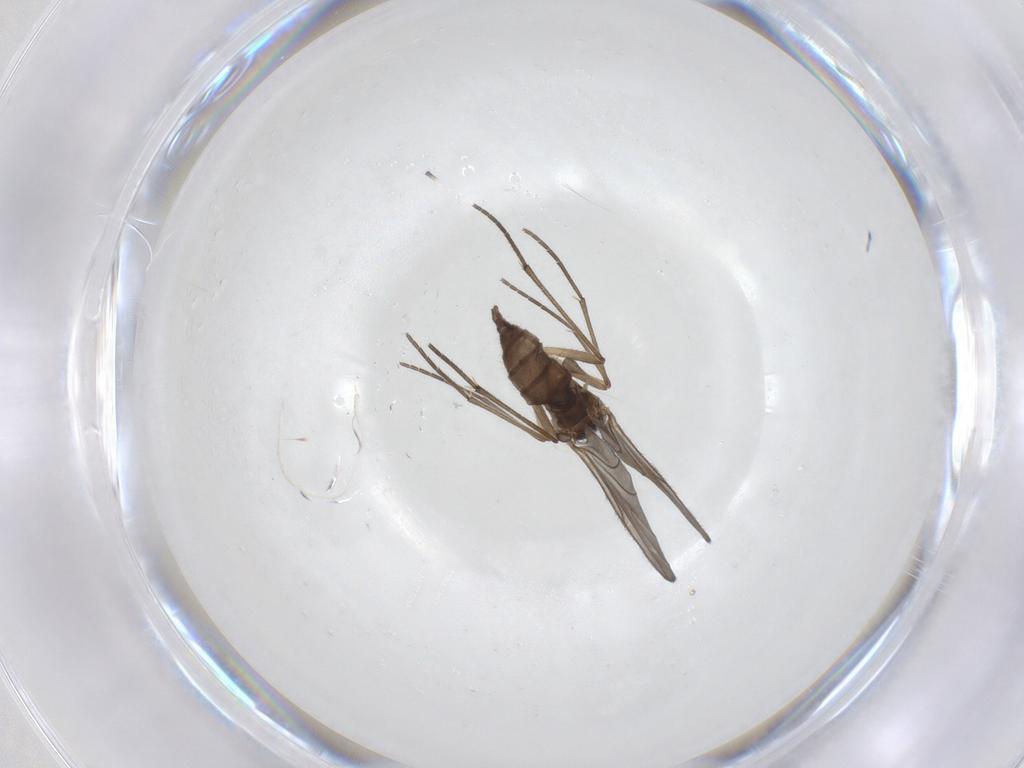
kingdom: Animalia
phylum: Arthropoda
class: Insecta
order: Diptera
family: Sciaridae
